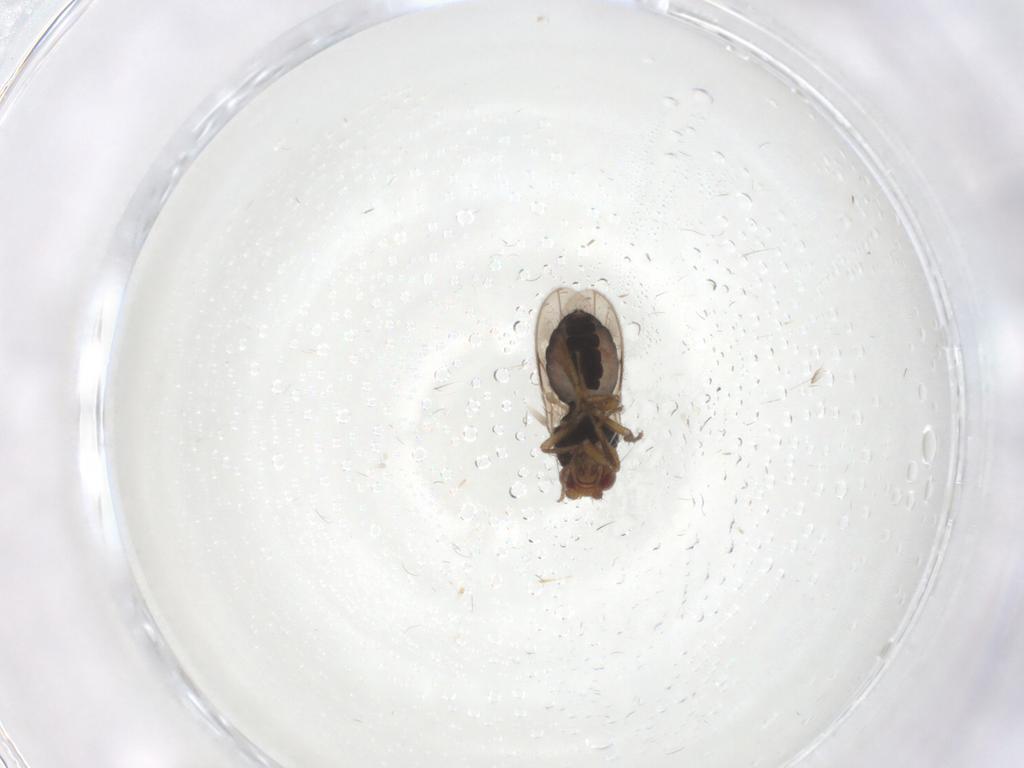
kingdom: Animalia
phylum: Arthropoda
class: Insecta
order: Diptera
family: Sphaeroceridae
